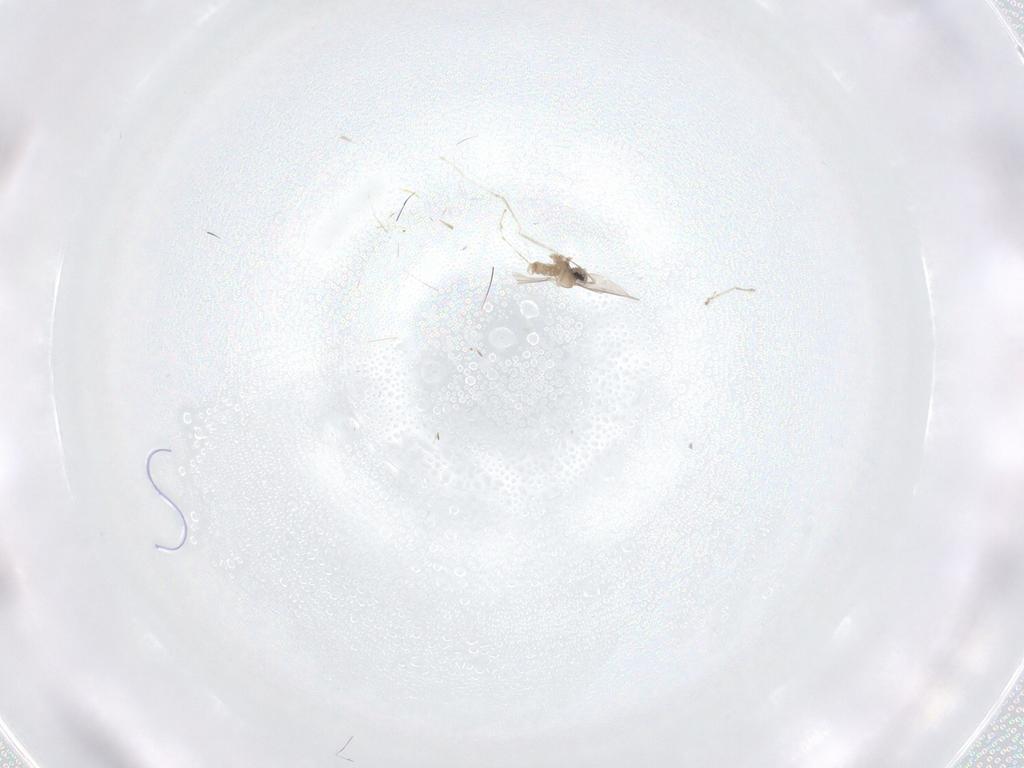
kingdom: Animalia
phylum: Arthropoda
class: Insecta
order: Diptera
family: Cecidomyiidae
